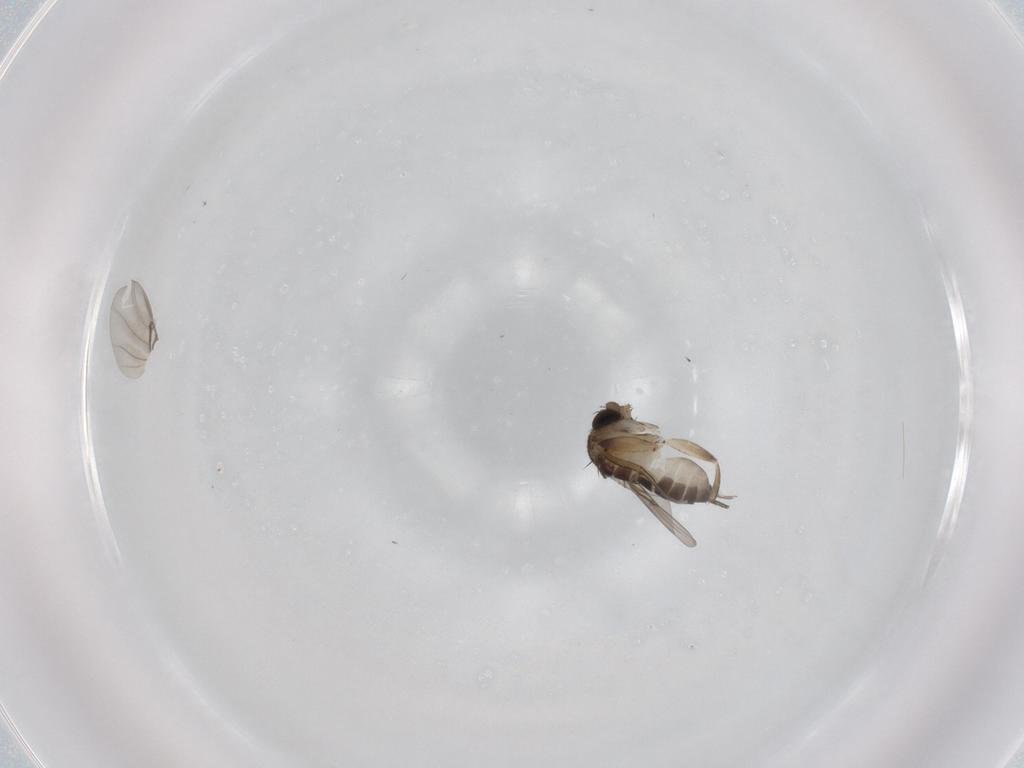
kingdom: Animalia
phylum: Arthropoda
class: Insecta
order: Diptera
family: Phoridae
